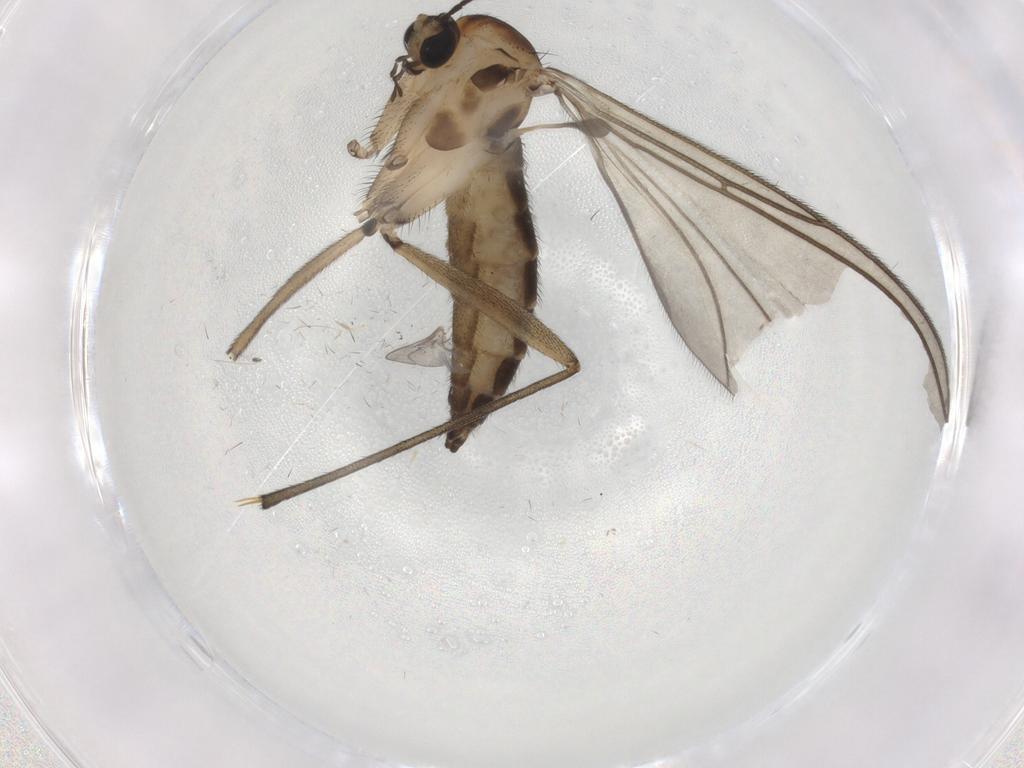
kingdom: Animalia
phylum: Arthropoda
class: Insecta
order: Diptera
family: Sciaridae
